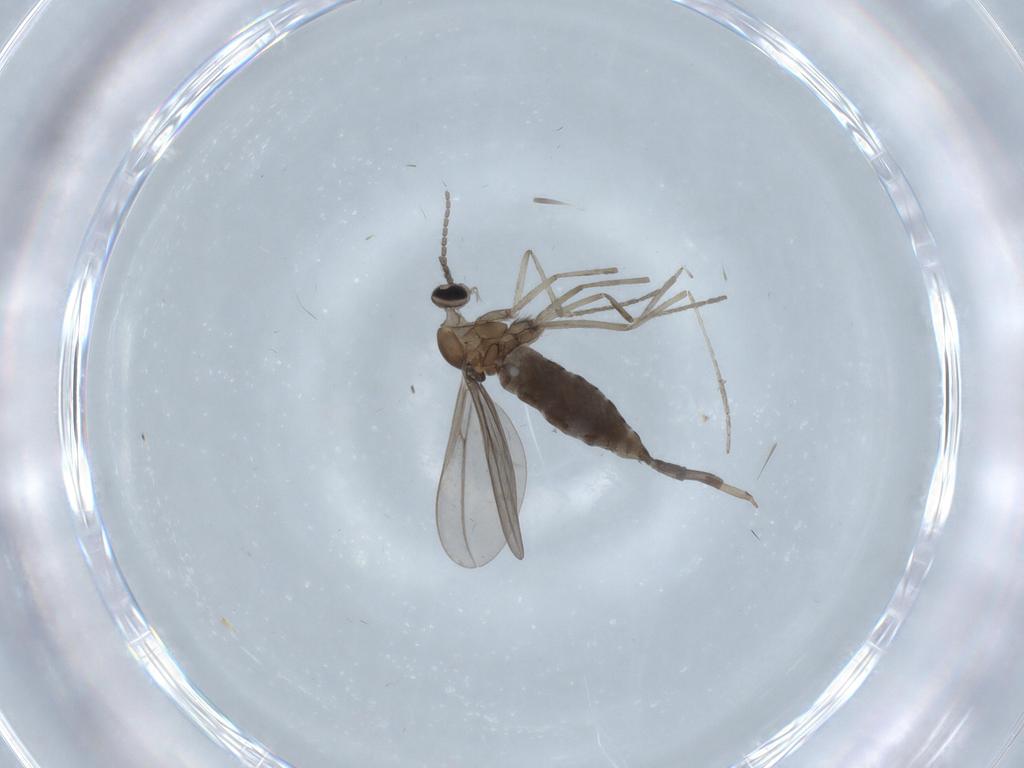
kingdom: Animalia
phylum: Arthropoda
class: Insecta
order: Diptera
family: Cecidomyiidae
